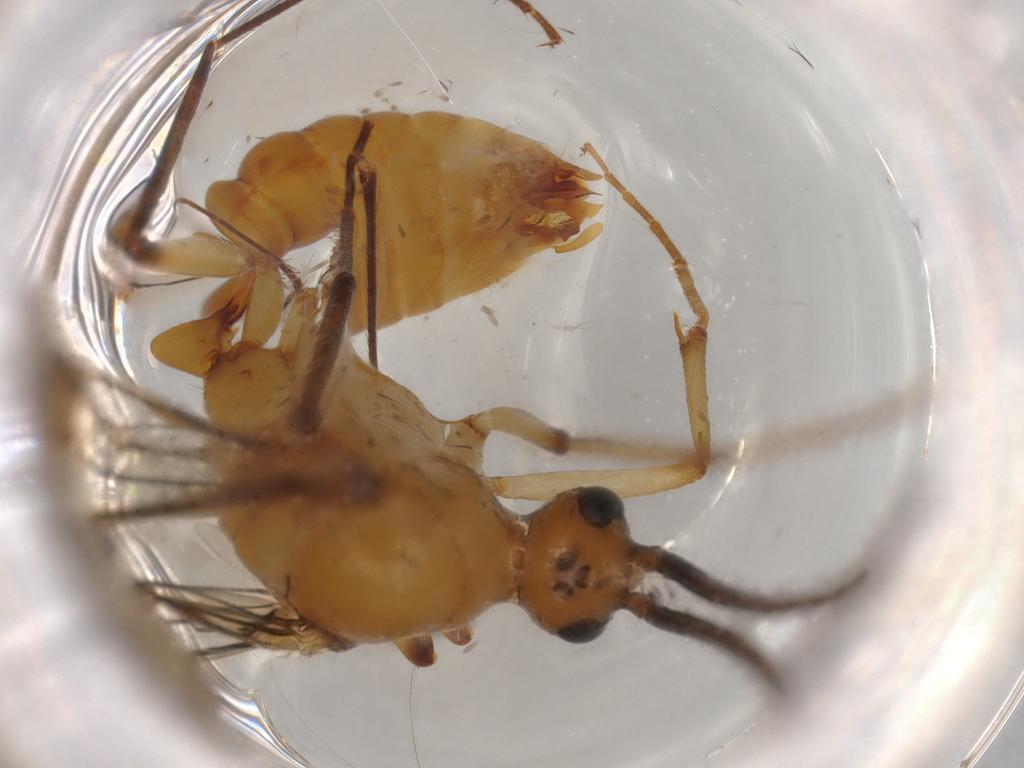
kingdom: Animalia
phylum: Arthropoda
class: Insecta
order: Hymenoptera
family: Formicidae
